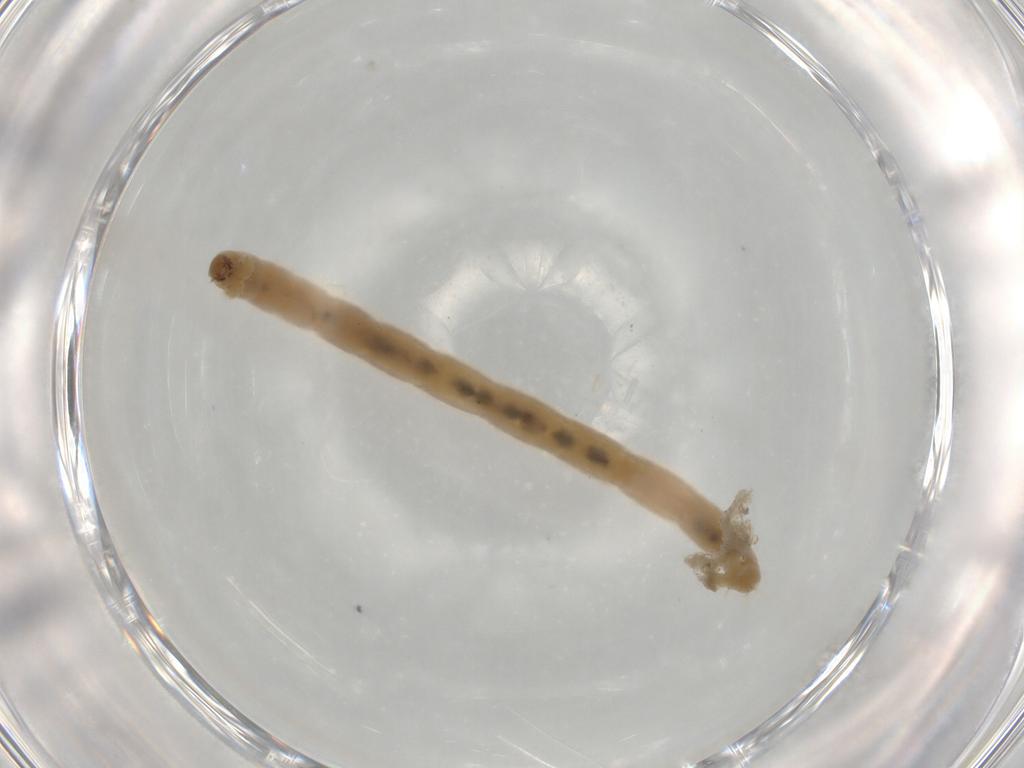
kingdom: Animalia
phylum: Arthropoda
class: Insecta
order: Diptera
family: Chironomidae
